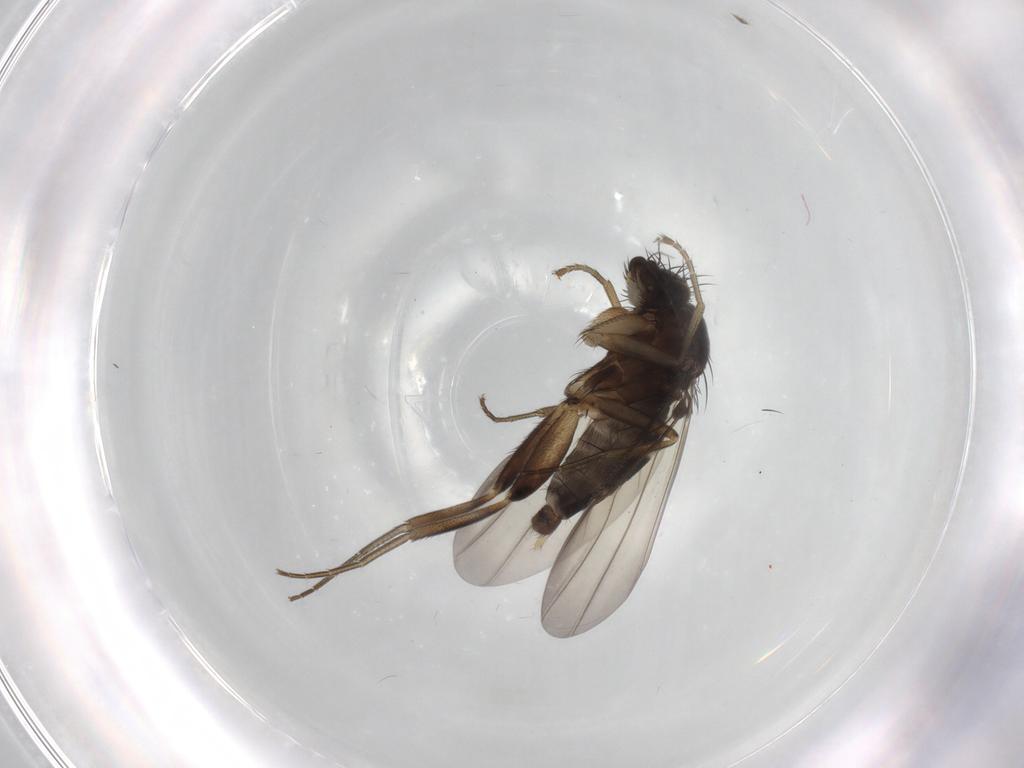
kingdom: Animalia
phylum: Arthropoda
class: Insecta
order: Diptera
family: Phoridae
